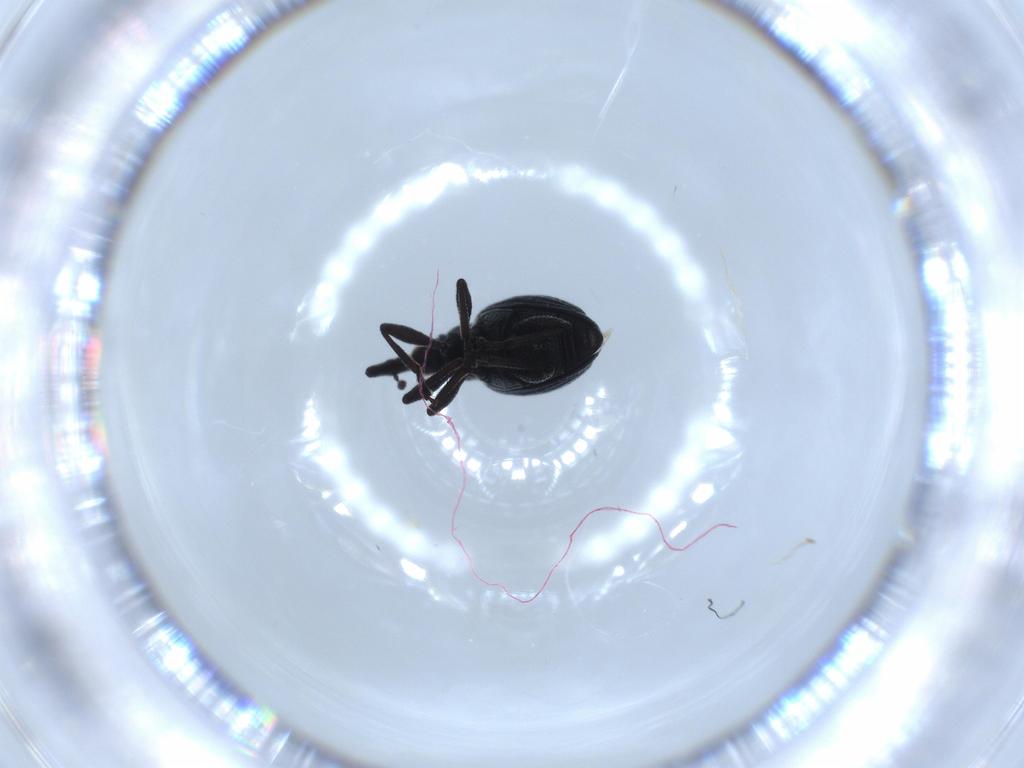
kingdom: Animalia
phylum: Arthropoda
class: Insecta
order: Coleoptera
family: Brentidae
